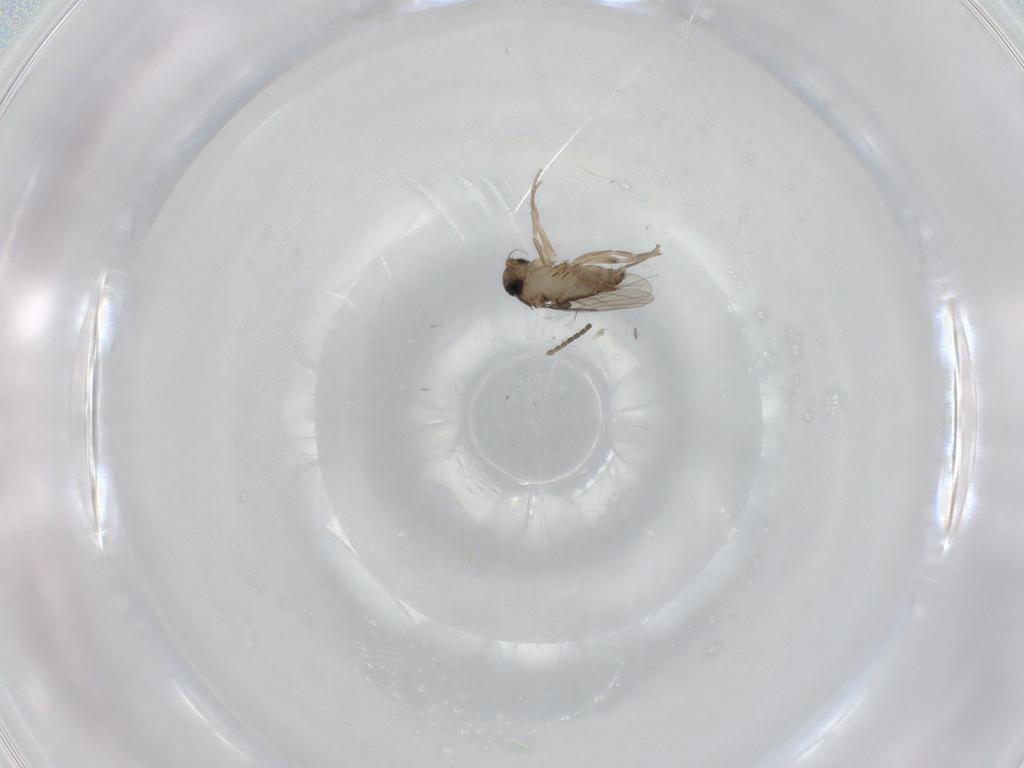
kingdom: Animalia
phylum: Arthropoda
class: Insecta
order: Diptera
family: Phoridae
